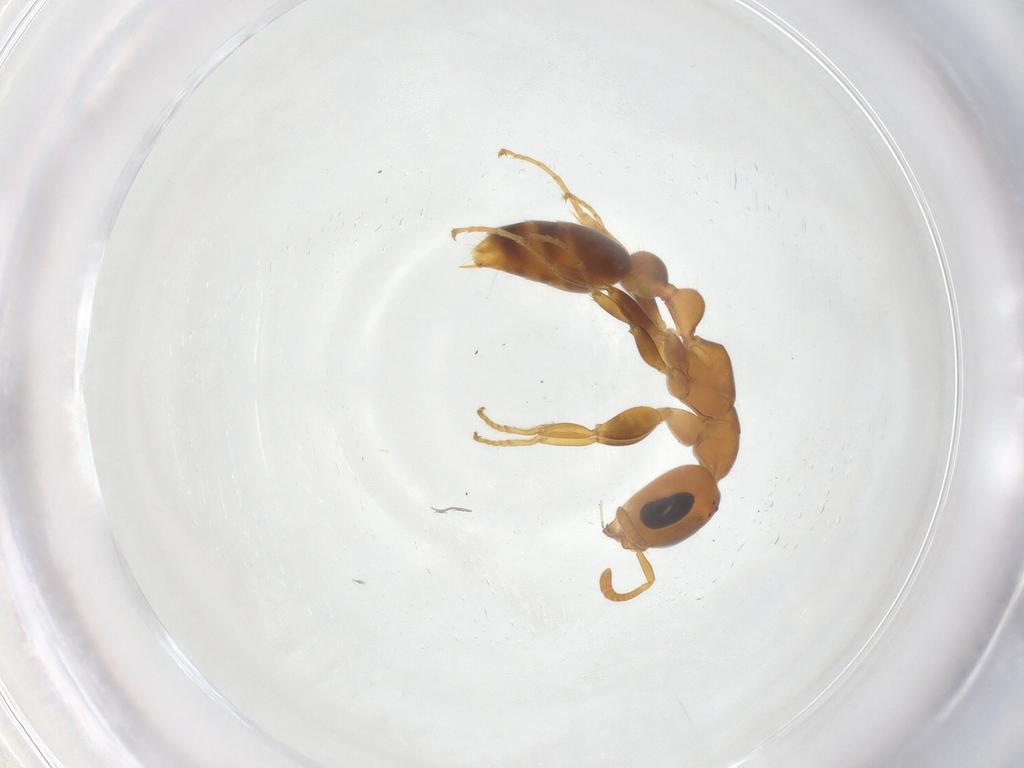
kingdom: Animalia
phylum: Arthropoda
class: Insecta
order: Hymenoptera
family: Formicidae
